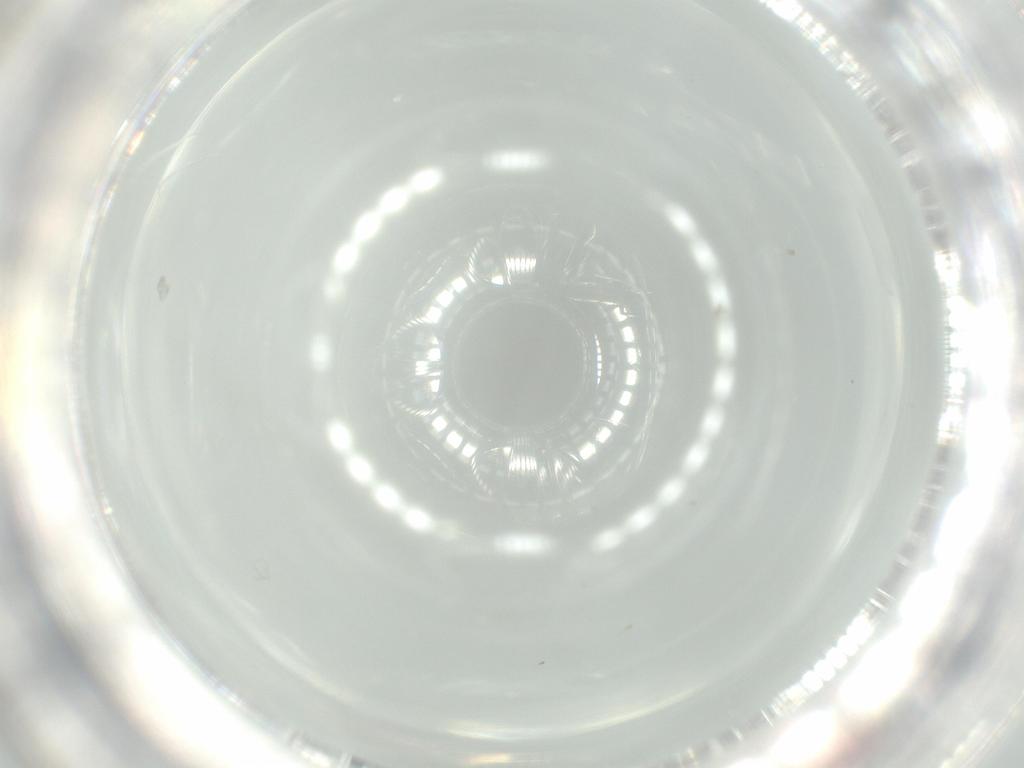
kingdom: Animalia
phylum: Arthropoda
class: Insecta
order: Diptera
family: Chironomidae
